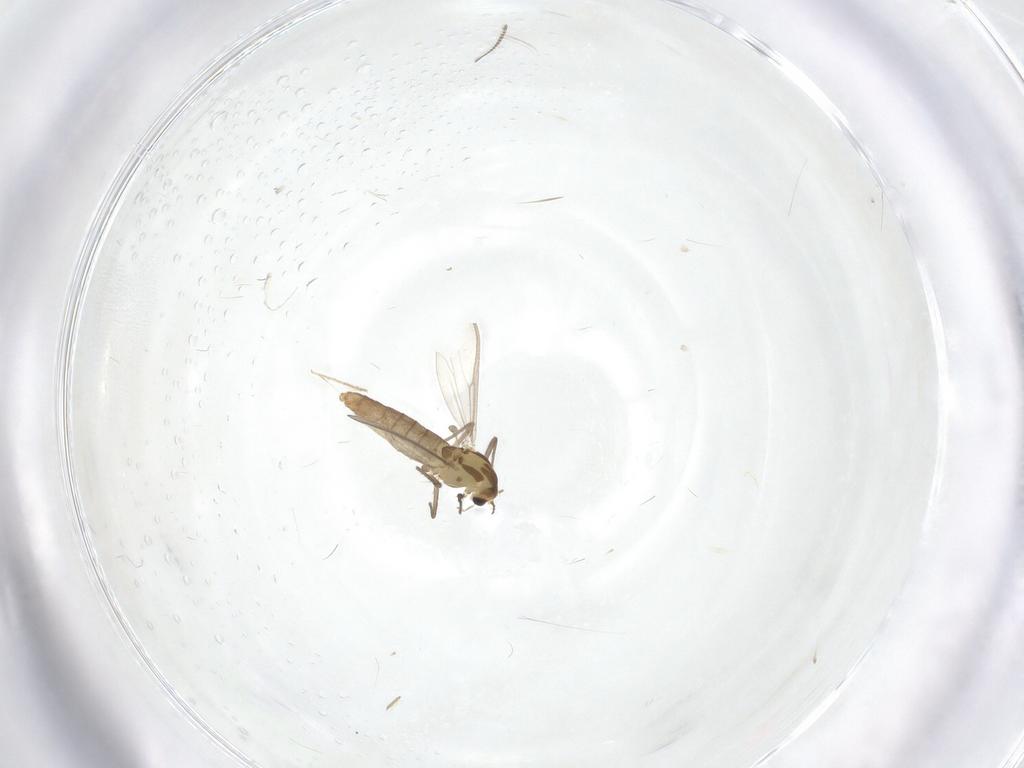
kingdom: Animalia
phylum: Arthropoda
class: Insecta
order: Diptera
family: Chironomidae
